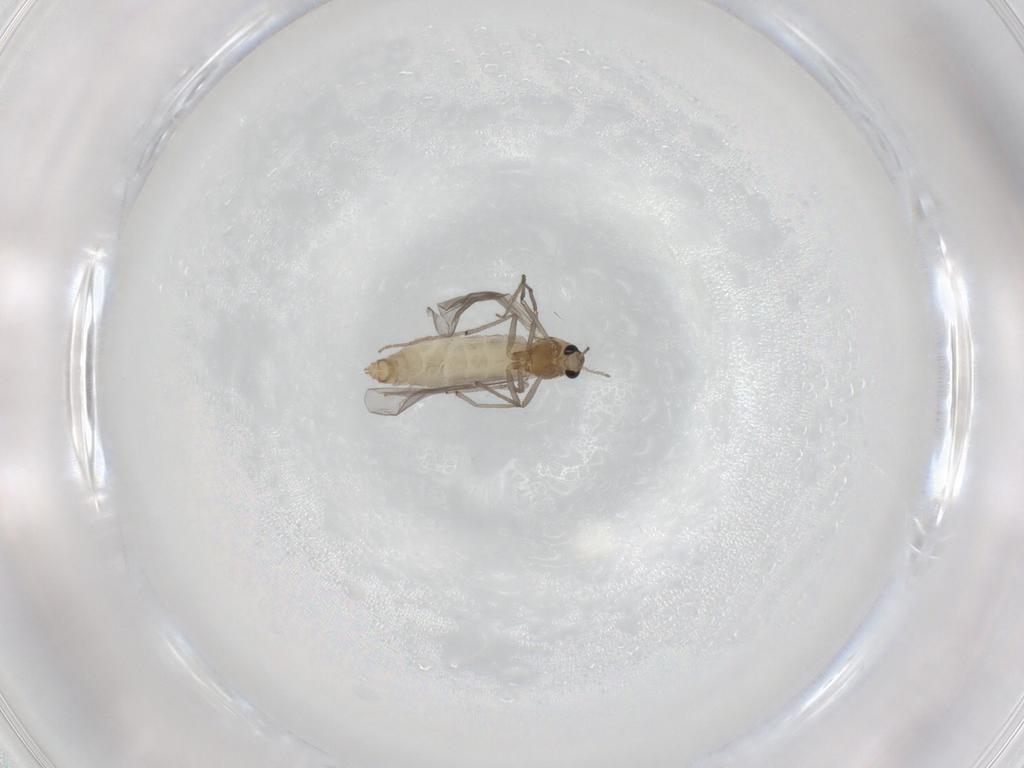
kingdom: Animalia
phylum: Arthropoda
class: Insecta
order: Diptera
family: Chironomidae
